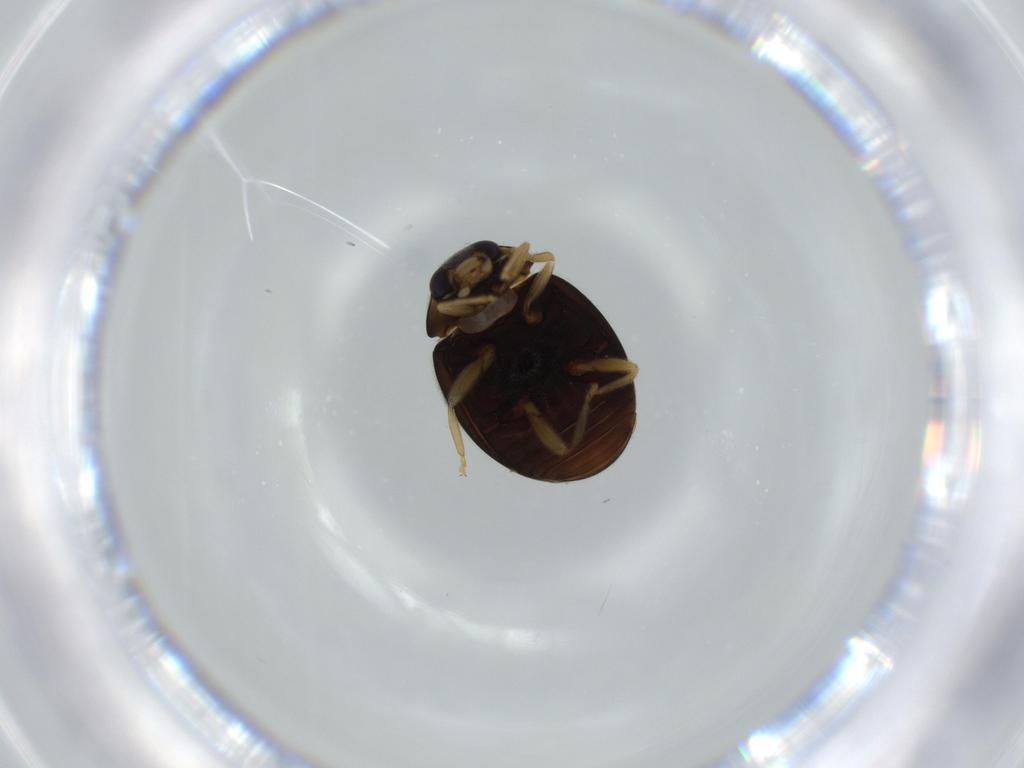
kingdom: Animalia
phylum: Arthropoda
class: Insecta
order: Coleoptera
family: Coccinellidae
